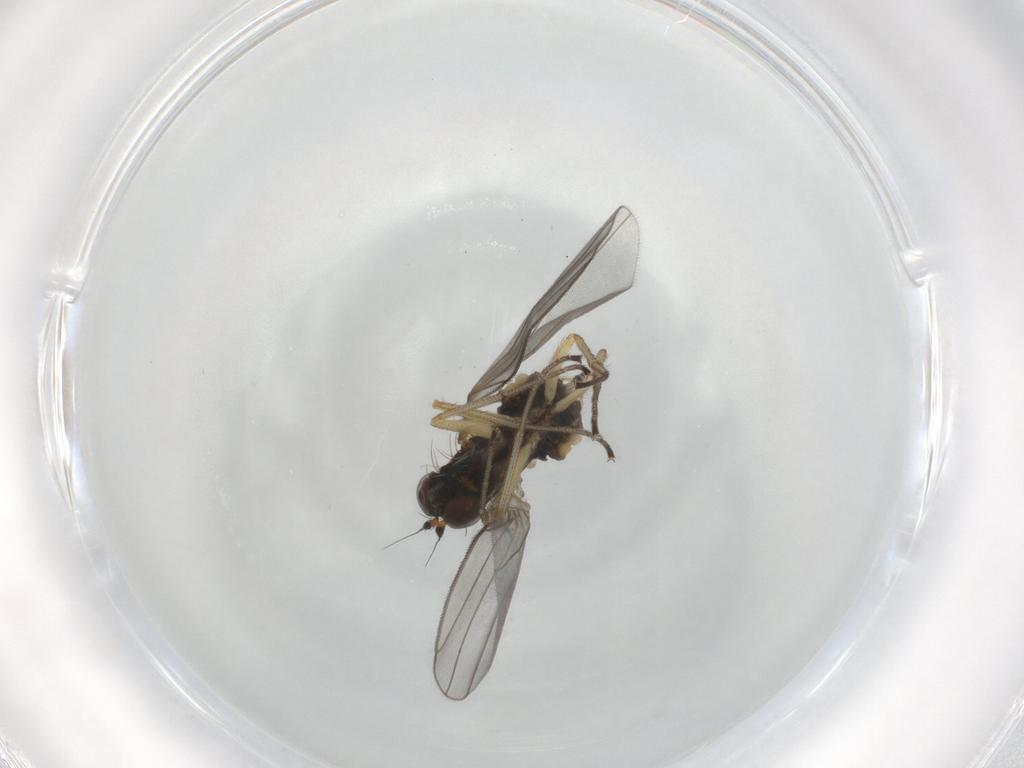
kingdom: Animalia
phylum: Arthropoda
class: Insecta
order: Diptera
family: Dolichopodidae
